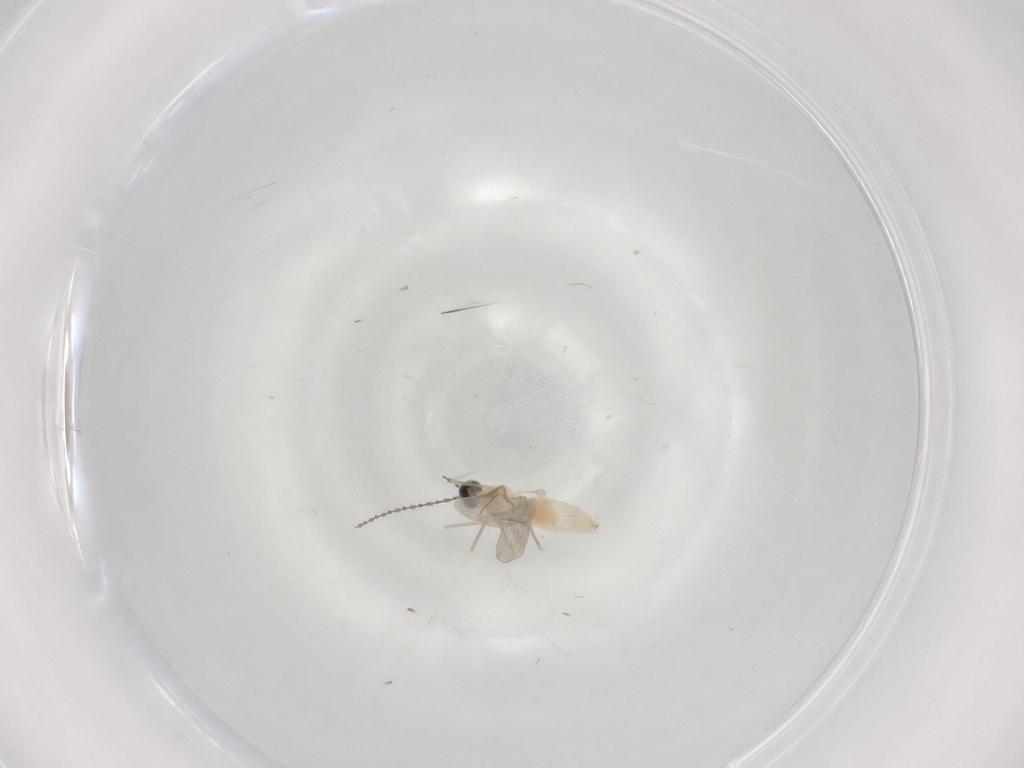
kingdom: Animalia
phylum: Arthropoda
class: Insecta
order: Diptera
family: Cecidomyiidae
